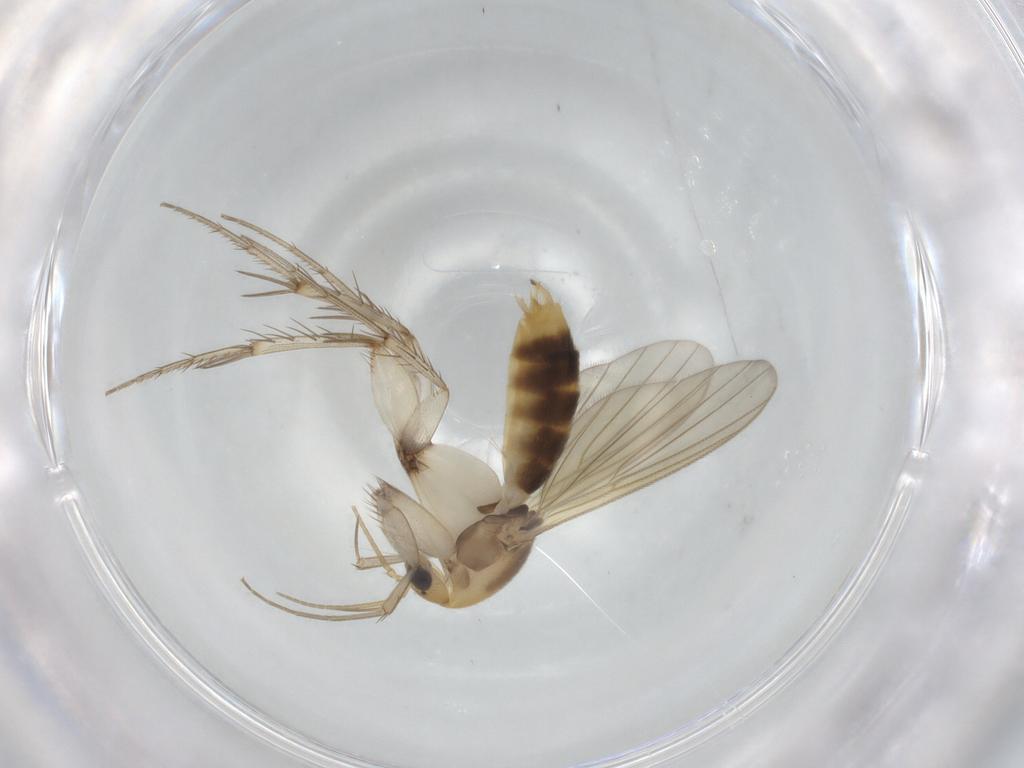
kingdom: Animalia
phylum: Arthropoda
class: Insecta
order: Diptera
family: Mycetophilidae
